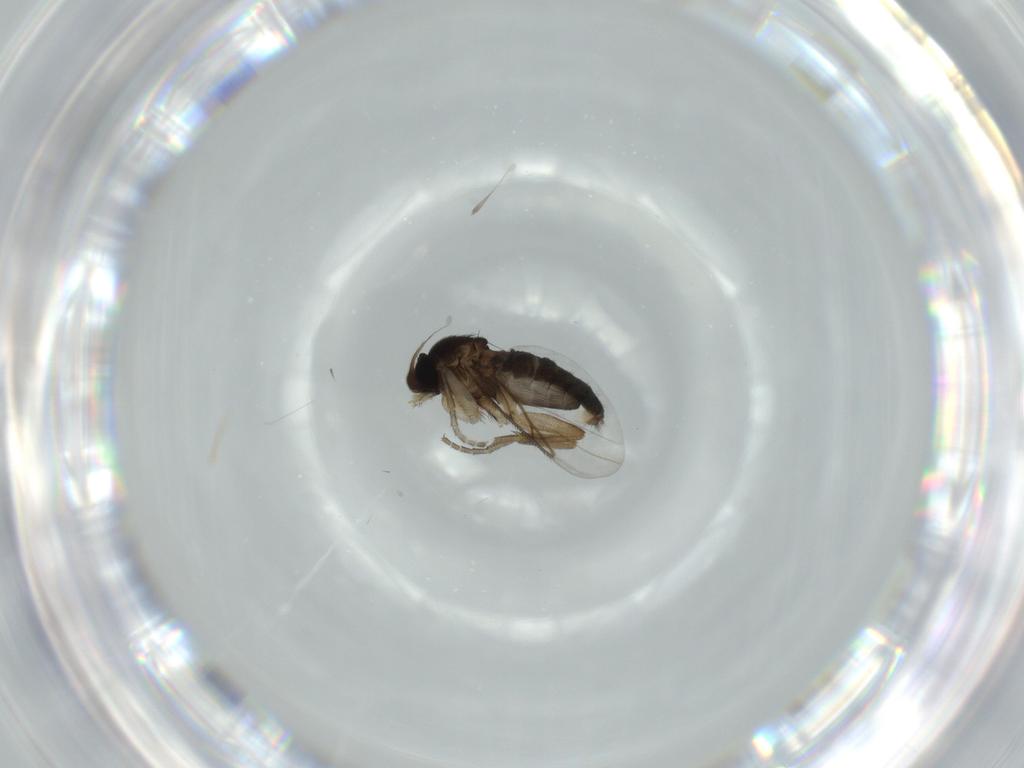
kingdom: Animalia
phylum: Arthropoda
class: Insecta
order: Diptera
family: Phoridae
